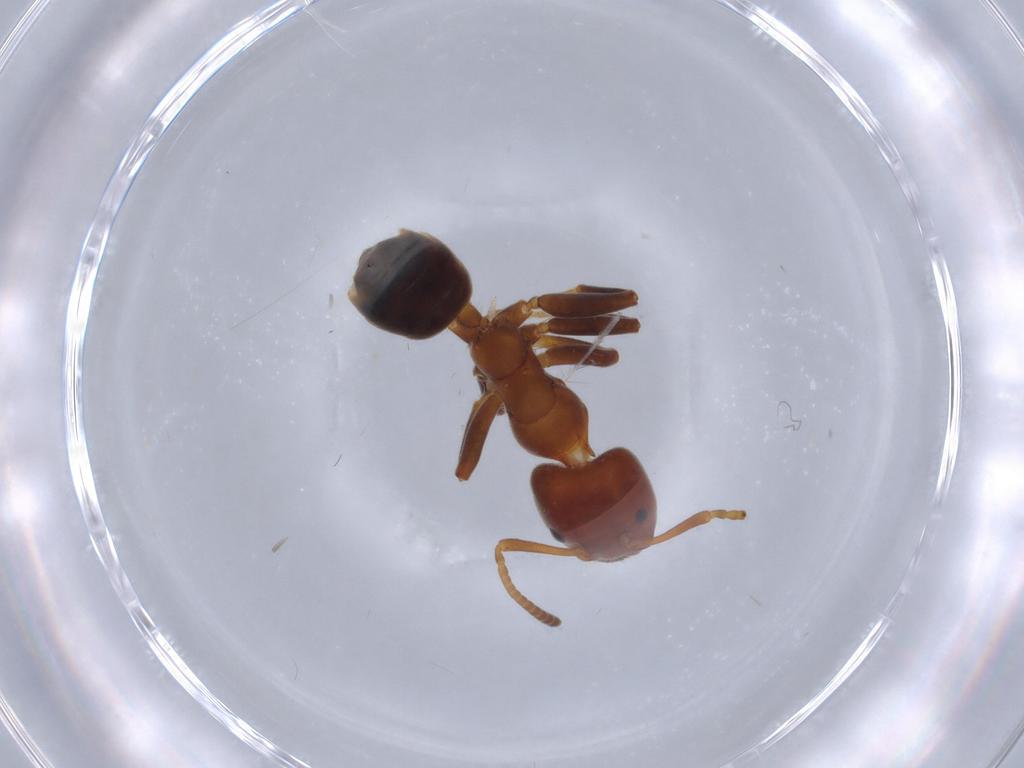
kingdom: Animalia
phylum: Arthropoda
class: Insecta
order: Hymenoptera
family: Formicidae
